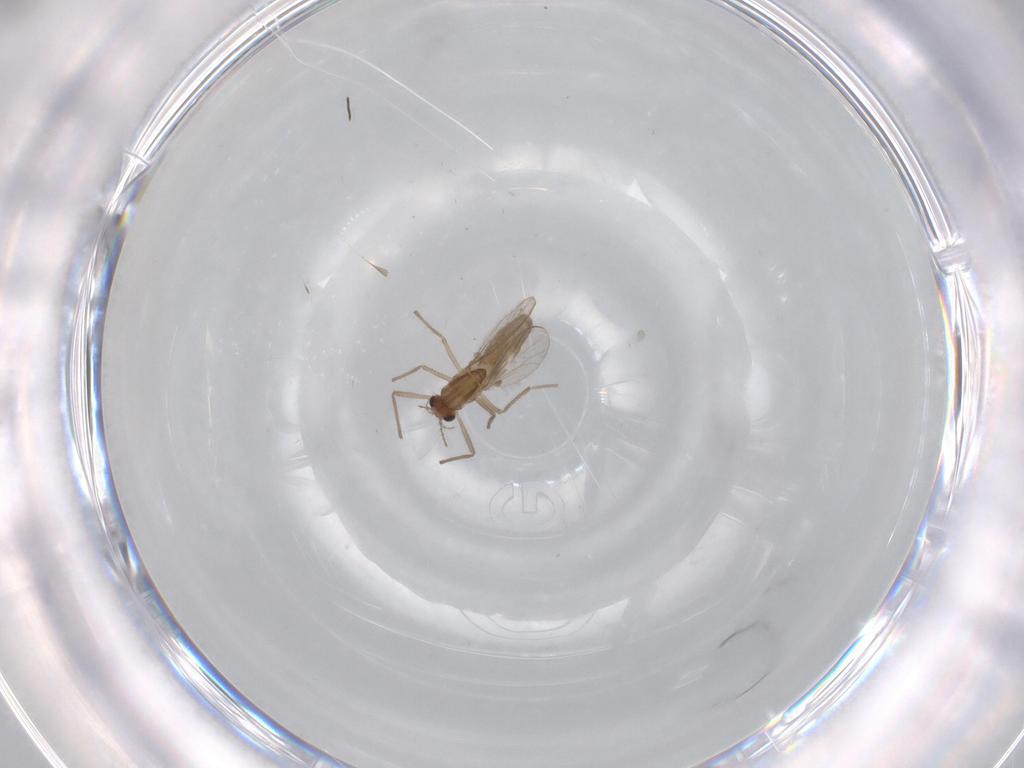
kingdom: Animalia
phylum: Arthropoda
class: Insecta
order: Diptera
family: Chironomidae
